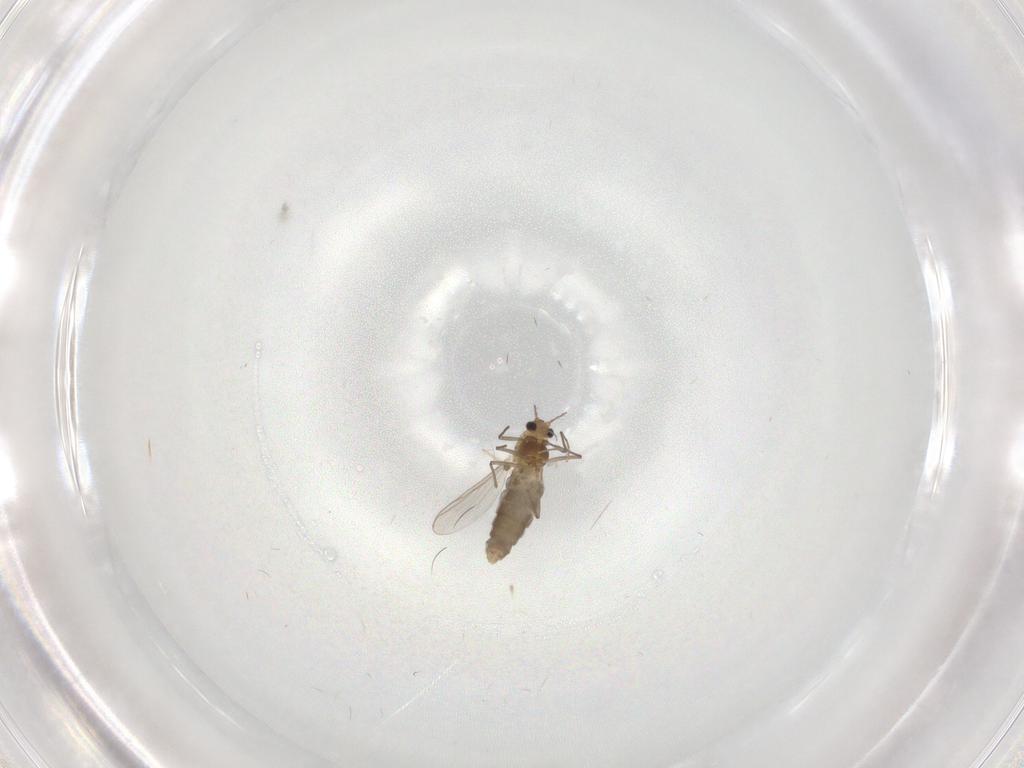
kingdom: Animalia
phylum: Arthropoda
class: Insecta
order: Diptera
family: Chironomidae
